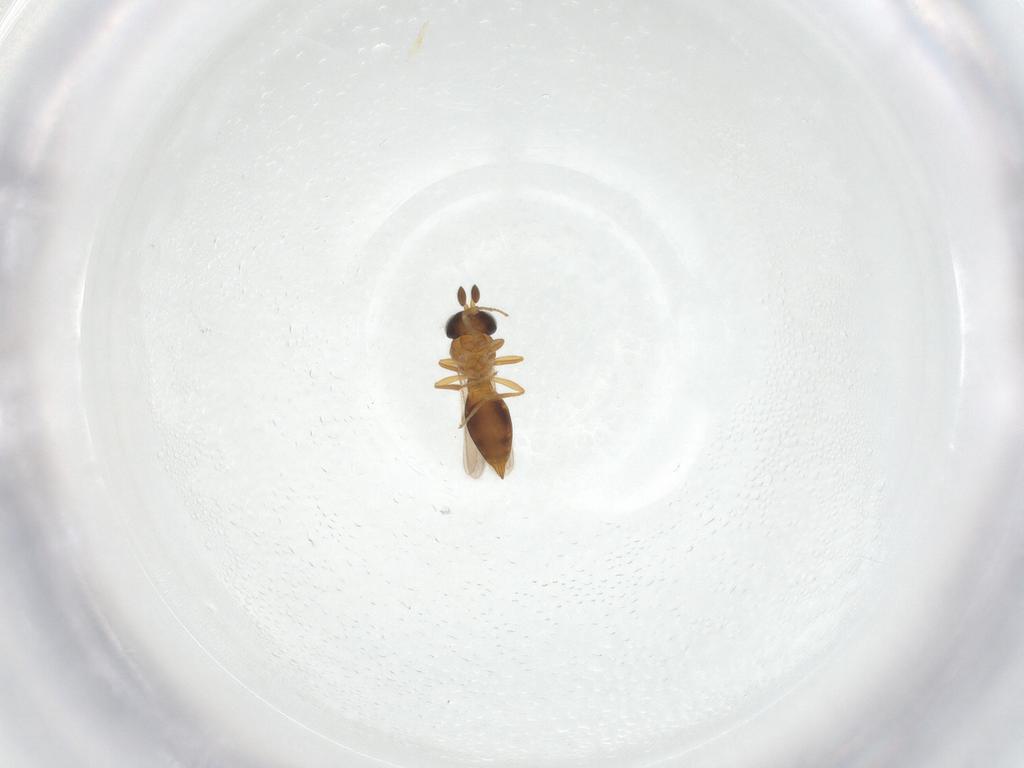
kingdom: Animalia
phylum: Arthropoda
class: Insecta
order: Hymenoptera
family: Scelionidae
